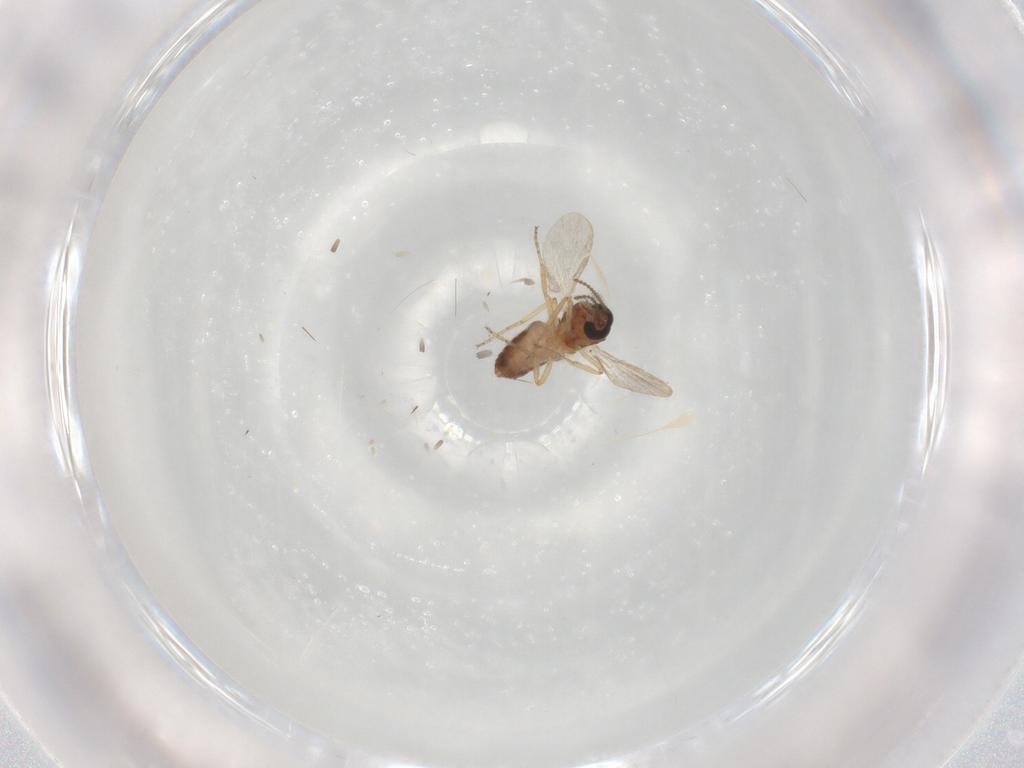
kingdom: Animalia
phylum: Arthropoda
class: Insecta
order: Diptera
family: Ceratopogonidae
